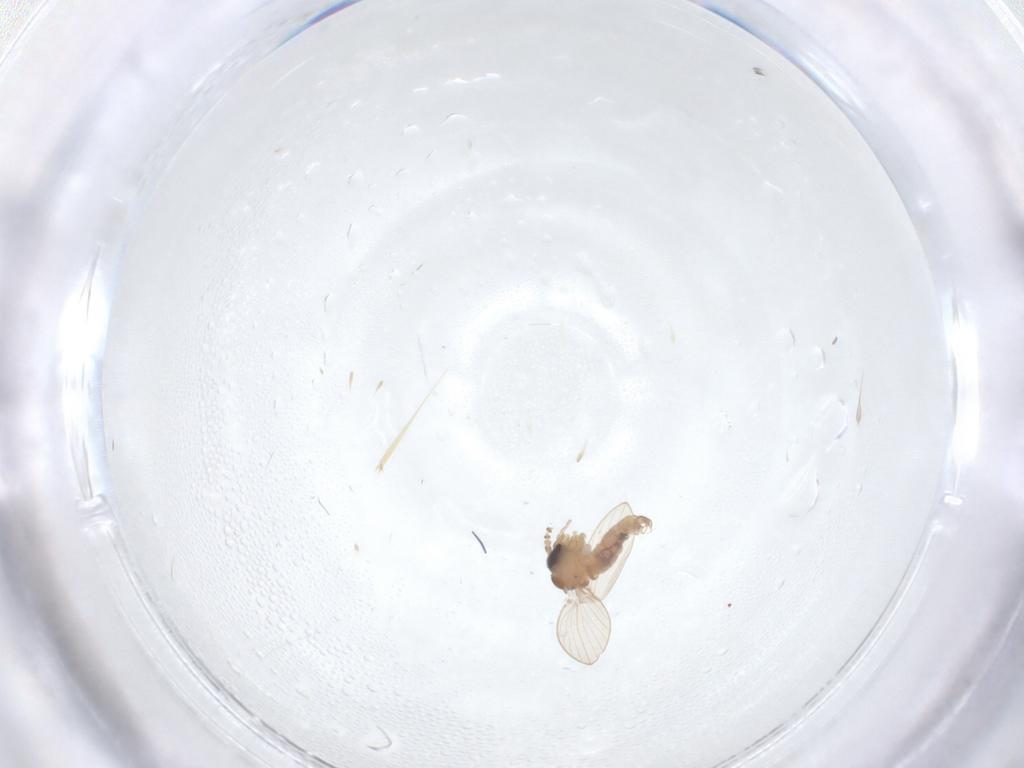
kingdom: Animalia
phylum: Arthropoda
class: Insecta
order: Diptera
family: Psychodidae
